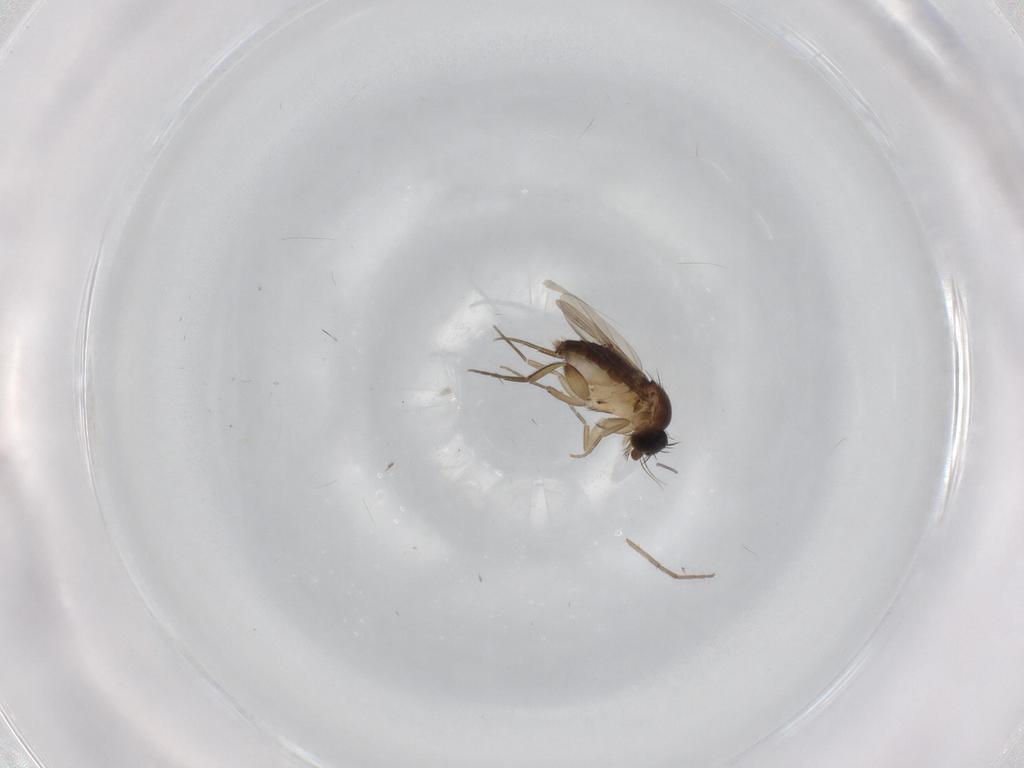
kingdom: Animalia
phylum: Arthropoda
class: Insecta
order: Diptera
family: Phoridae
